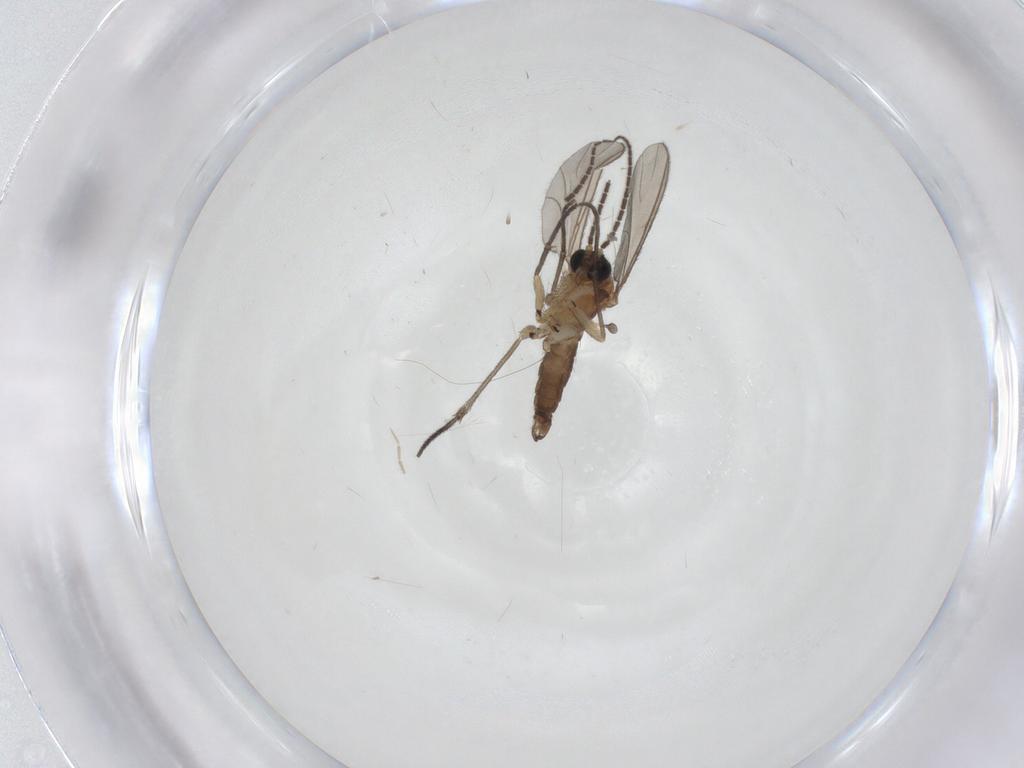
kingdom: Animalia
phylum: Arthropoda
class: Insecta
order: Diptera
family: Sciaridae
